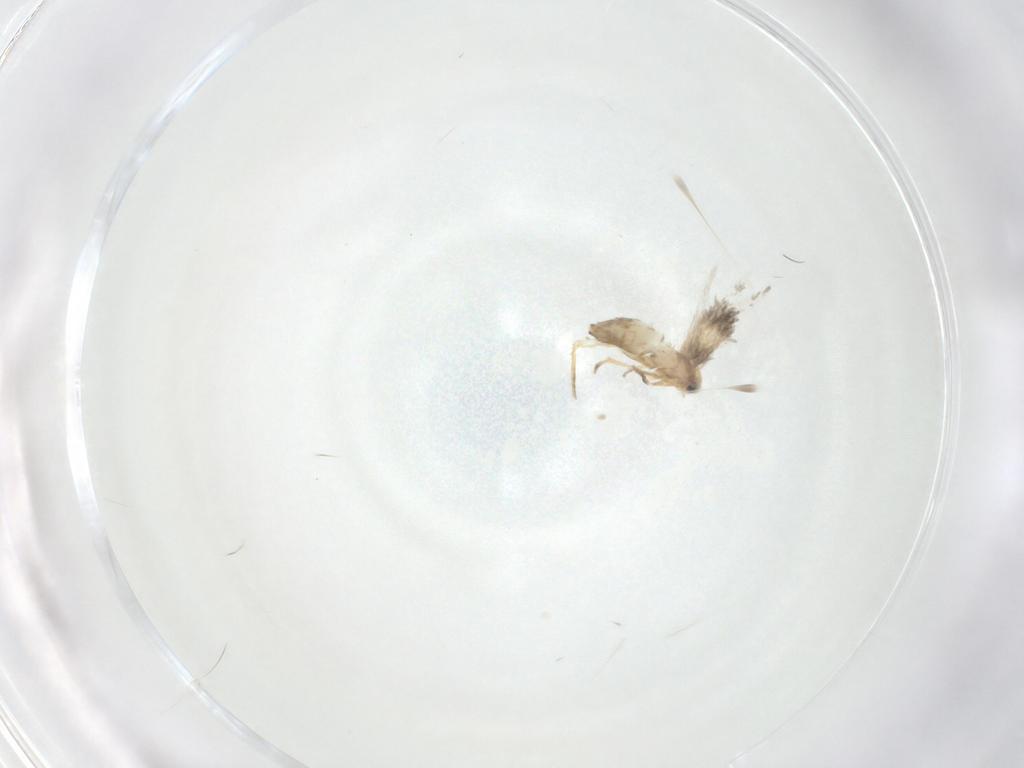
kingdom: Animalia
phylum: Arthropoda
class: Insecta
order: Lepidoptera
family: Nepticulidae
